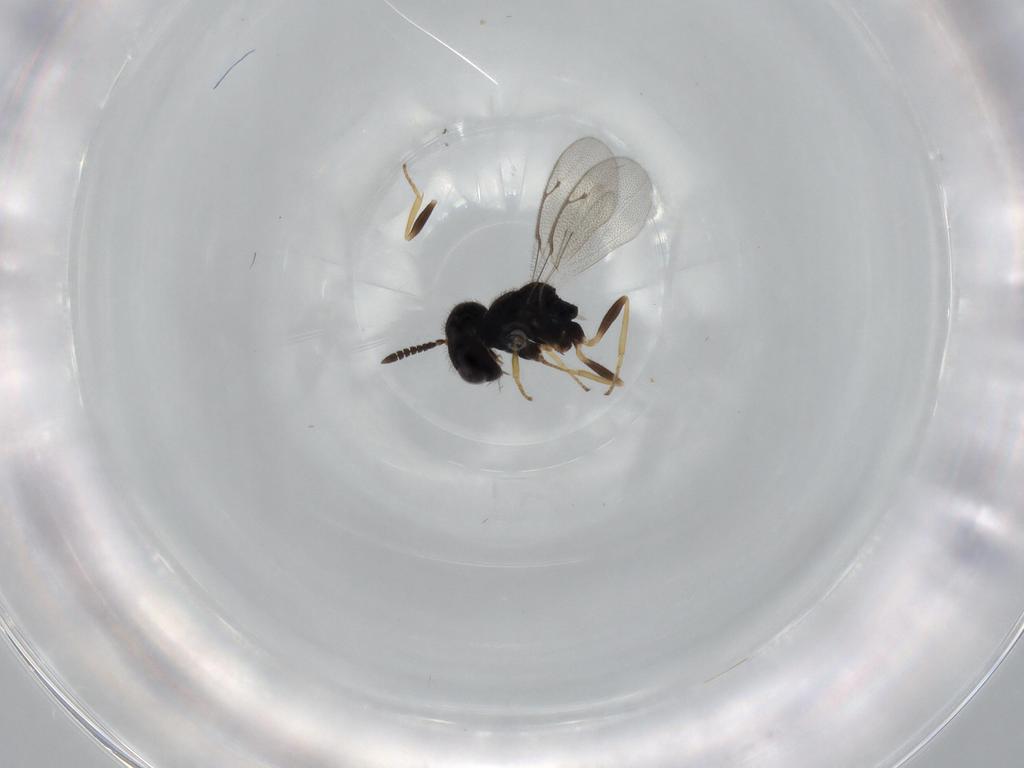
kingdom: Animalia
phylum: Arthropoda
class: Insecta
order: Hymenoptera
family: Pteromalidae
